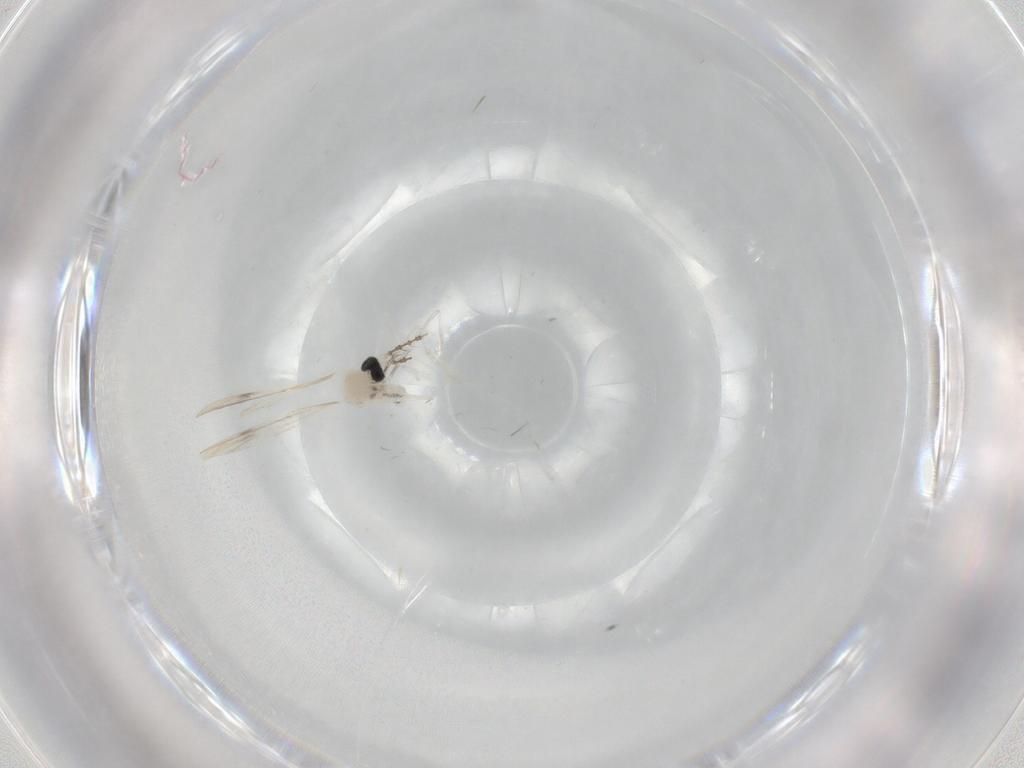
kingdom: Animalia
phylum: Arthropoda
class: Insecta
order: Diptera
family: Cecidomyiidae
